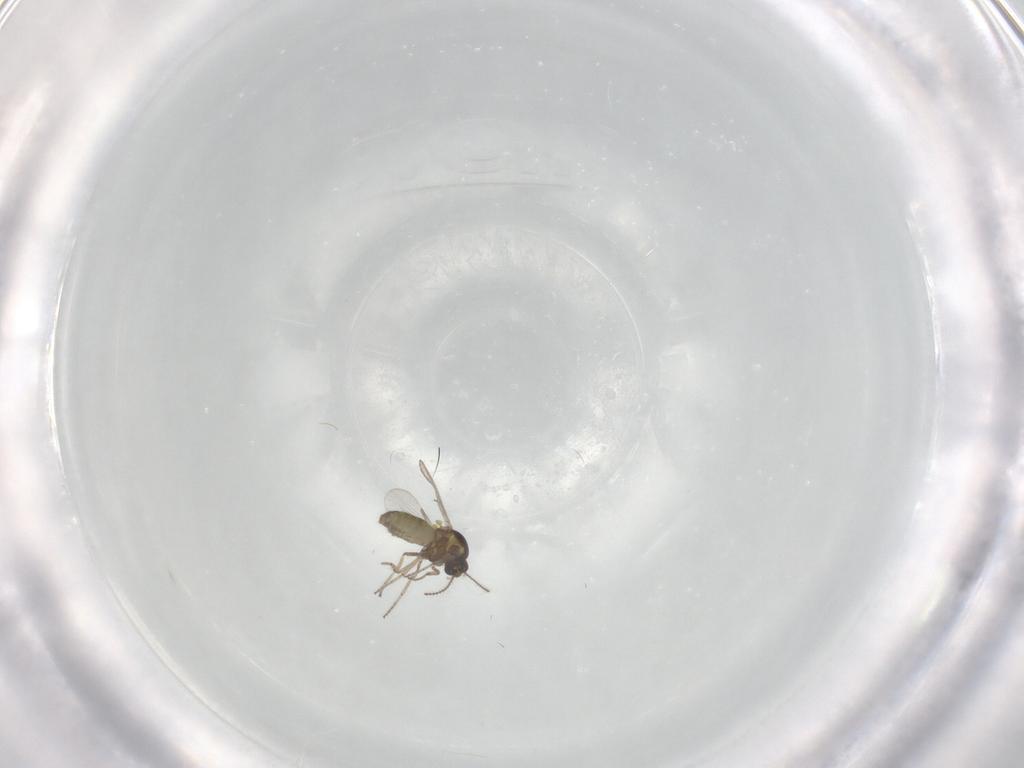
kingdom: Animalia
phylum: Arthropoda
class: Insecta
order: Diptera
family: Ceratopogonidae
